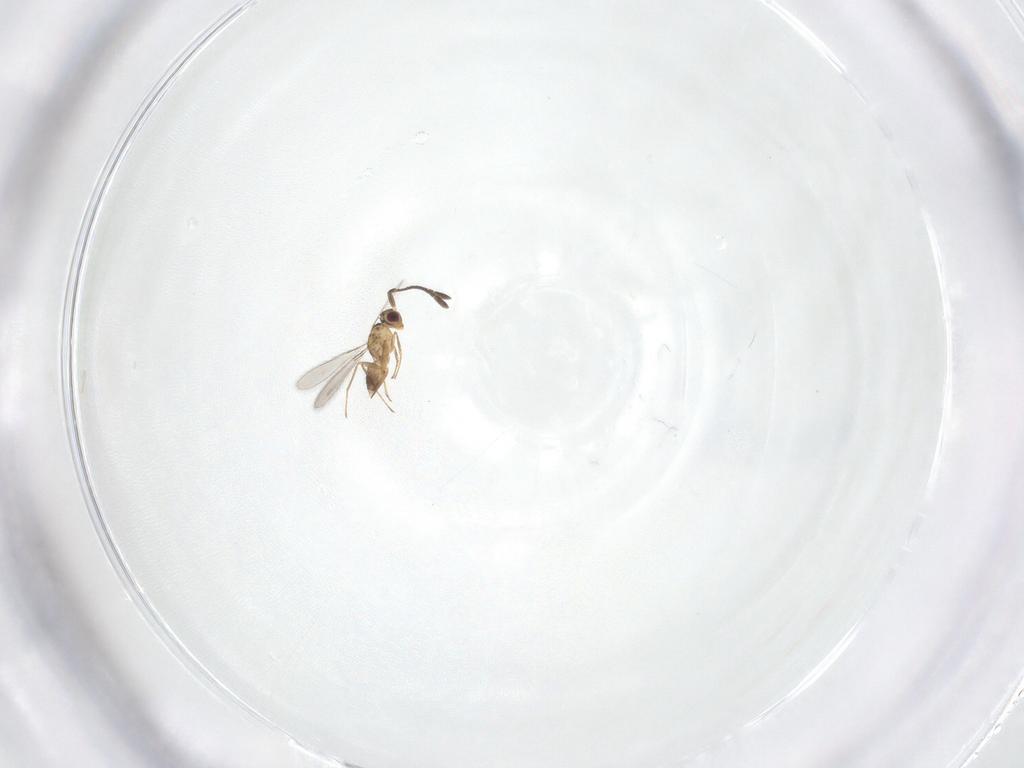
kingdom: Animalia
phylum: Arthropoda
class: Insecta
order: Hymenoptera
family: Mymaridae
